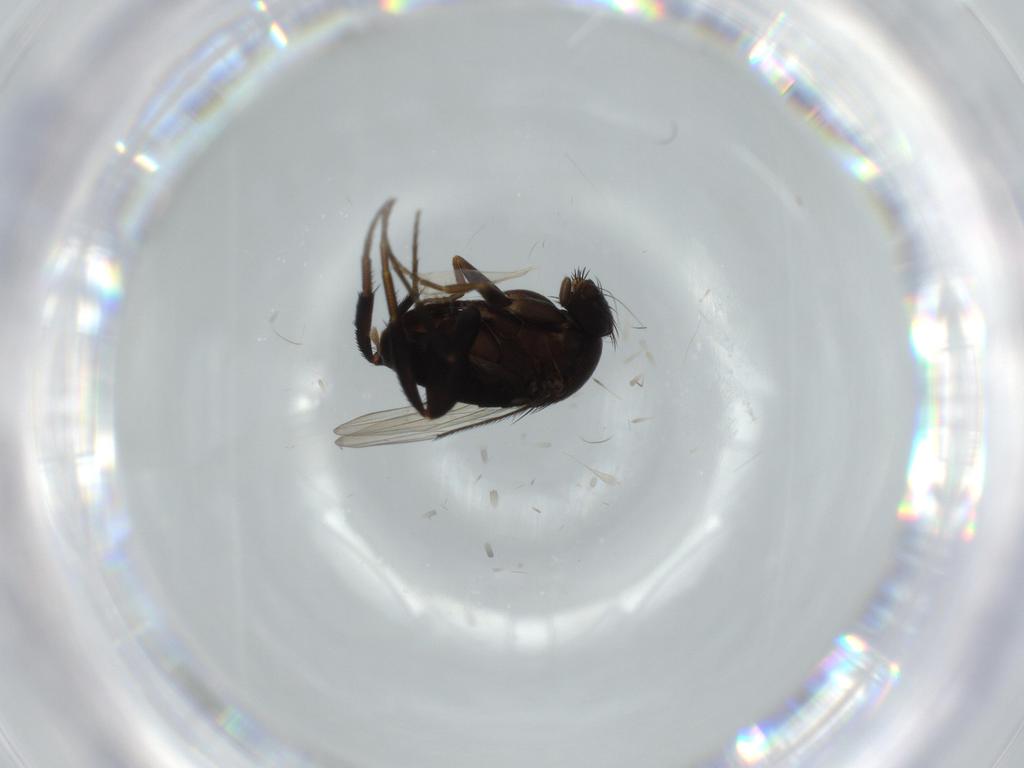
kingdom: Animalia
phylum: Arthropoda
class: Insecta
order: Diptera
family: Phoridae
